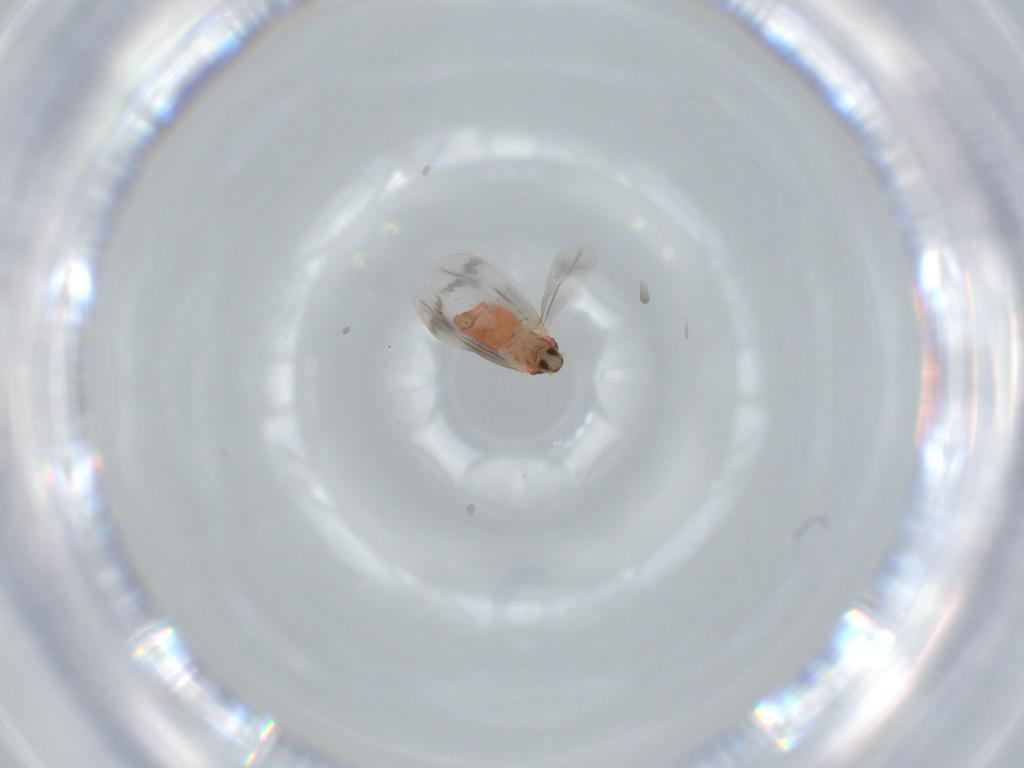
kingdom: Animalia
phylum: Arthropoda
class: Insecta
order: Hemiptera
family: Aleyrodidae
